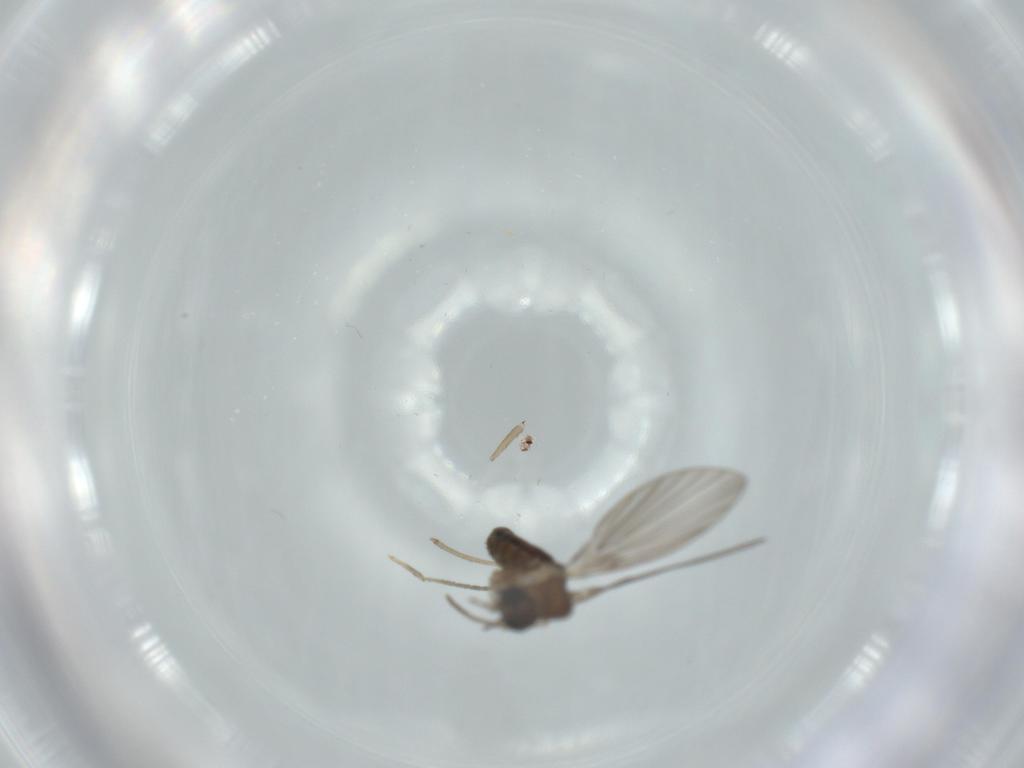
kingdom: Animalia
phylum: Arthropoda
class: Insecta
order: Diptera
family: Psychodidae
